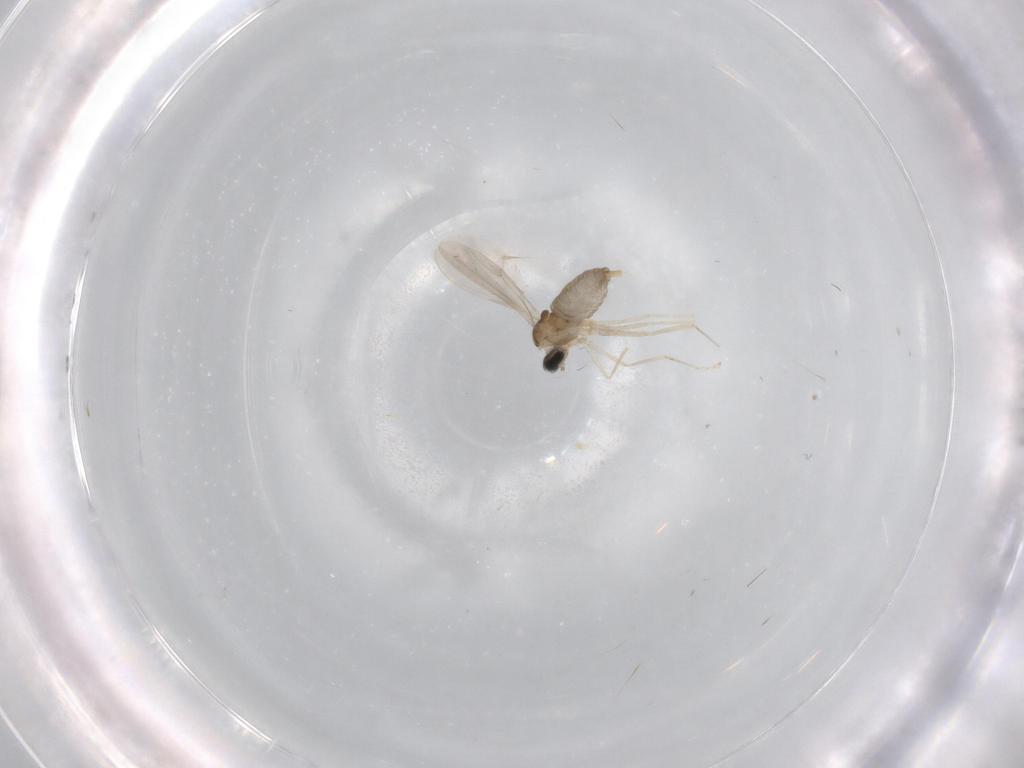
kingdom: Animalia
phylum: Arthropoda
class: Insecta
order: Diptera
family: Cecidomyiidae
